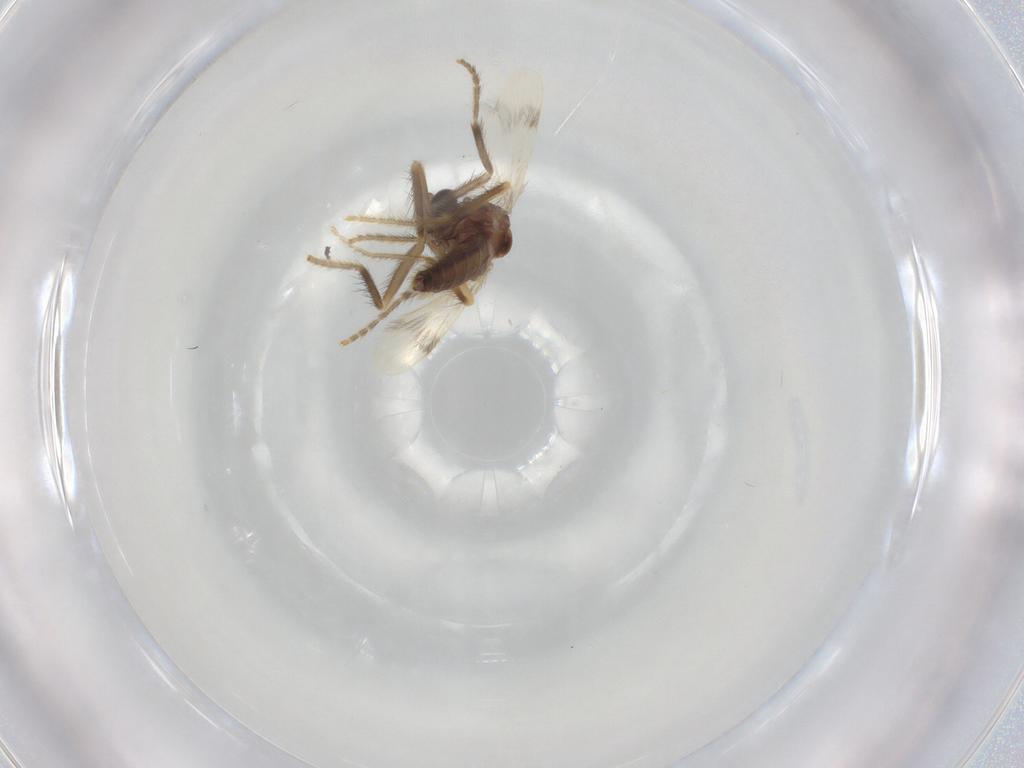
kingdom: Animalia
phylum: Arthropoda
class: Insecta
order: Diptera
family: Corethrellidae
